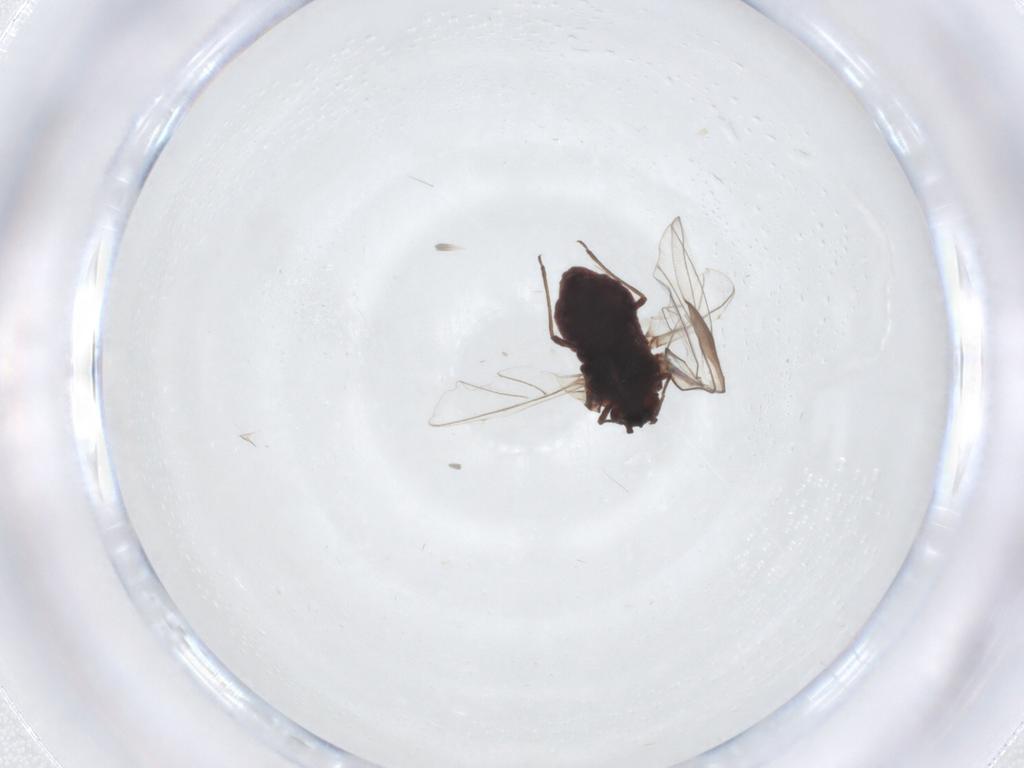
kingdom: Animalia
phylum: Arthropoda
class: Insecta
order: Hemiptera
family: Aphididae
